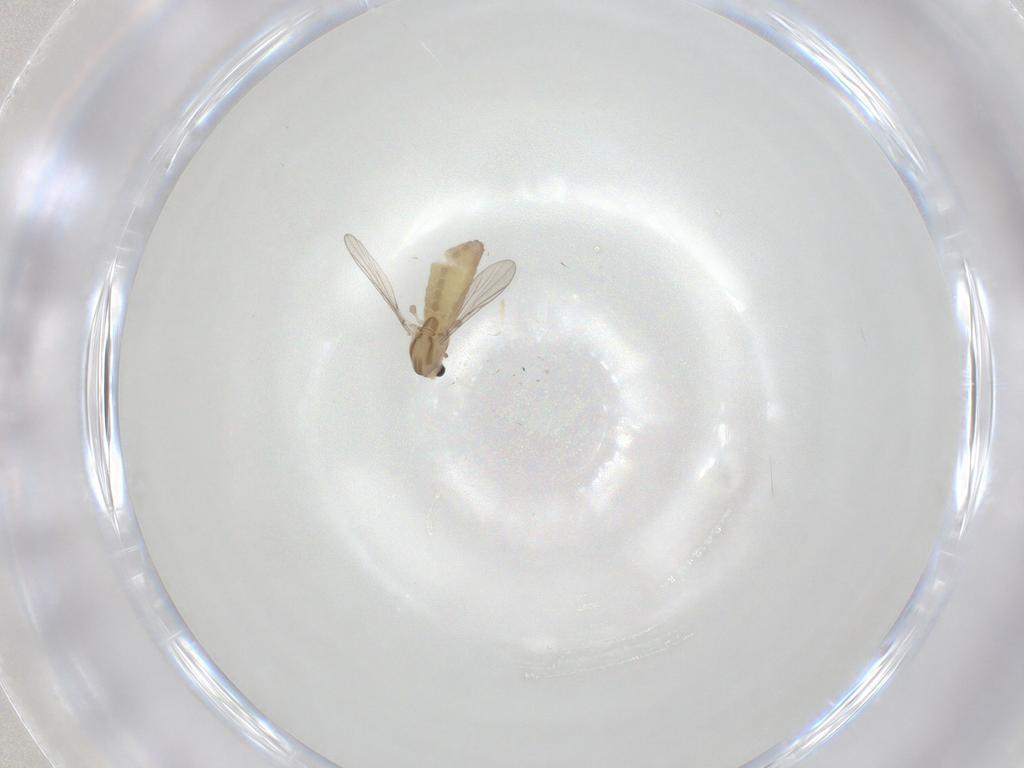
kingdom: Animalia
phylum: Arthropoda
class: Insecta
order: Diptera
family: Chironomidae
